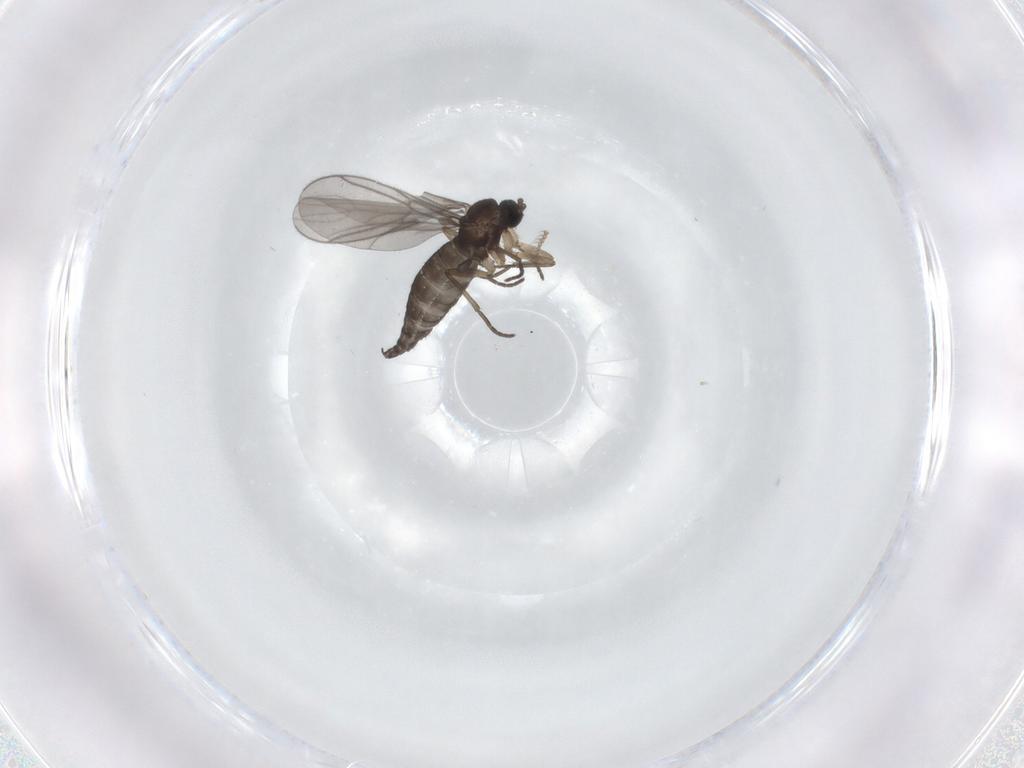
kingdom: Animalia
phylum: Arthropoda
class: Insecta
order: Diptera
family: Ceratopogonidae
